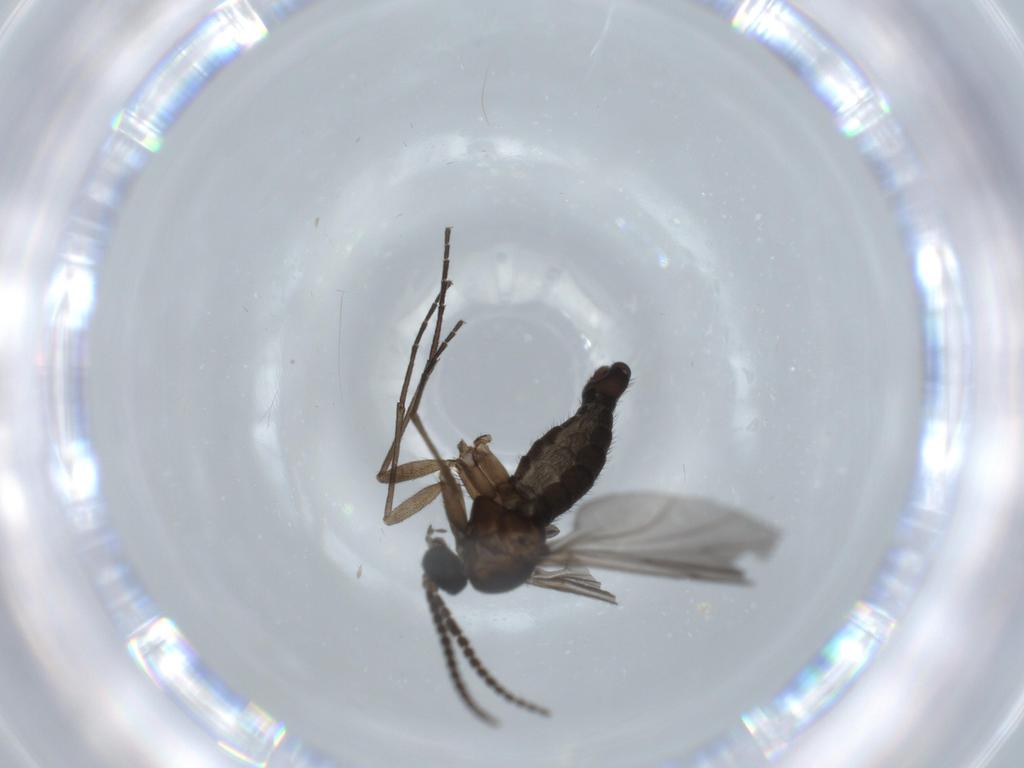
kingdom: Animalia
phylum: Arthropoda
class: Insecta
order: Diptera
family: Sciaridae
